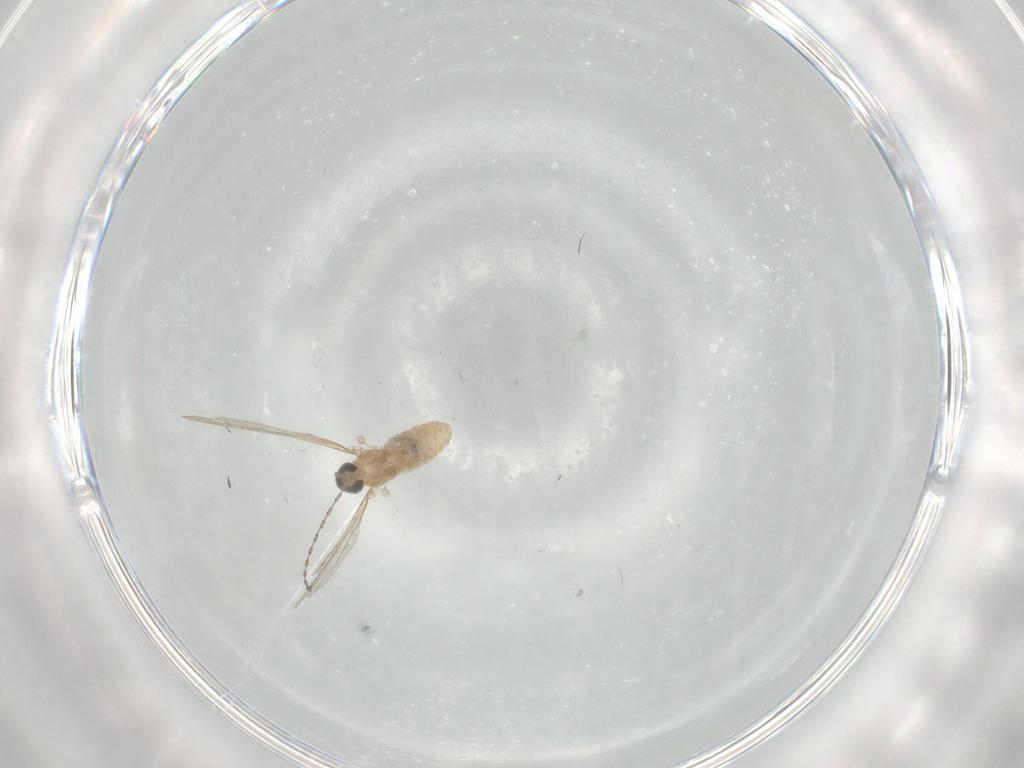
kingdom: Animalia
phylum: Arthropoda
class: Insecta
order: Diptera
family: Cecidomyiidae
